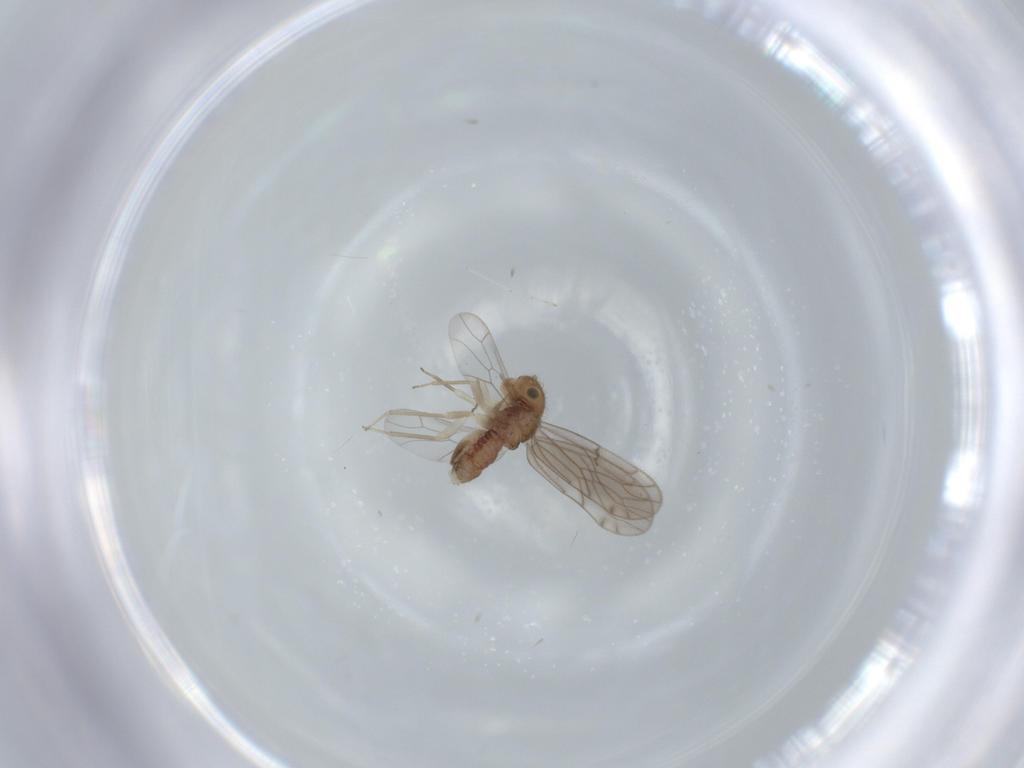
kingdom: Animalia
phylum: Arthropoda
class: Insecta
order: Psocodea
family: Ectopsocidae
